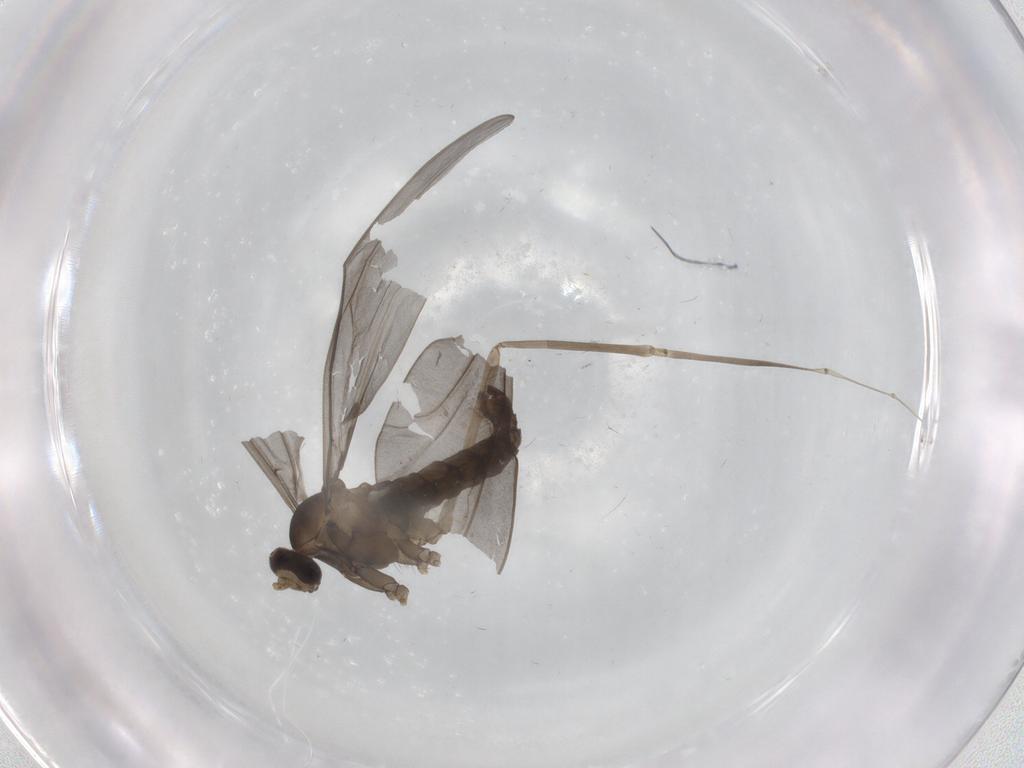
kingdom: Animalia
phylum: Arthropoda
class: Insecta
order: Diptera
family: Cecidomyiidae
